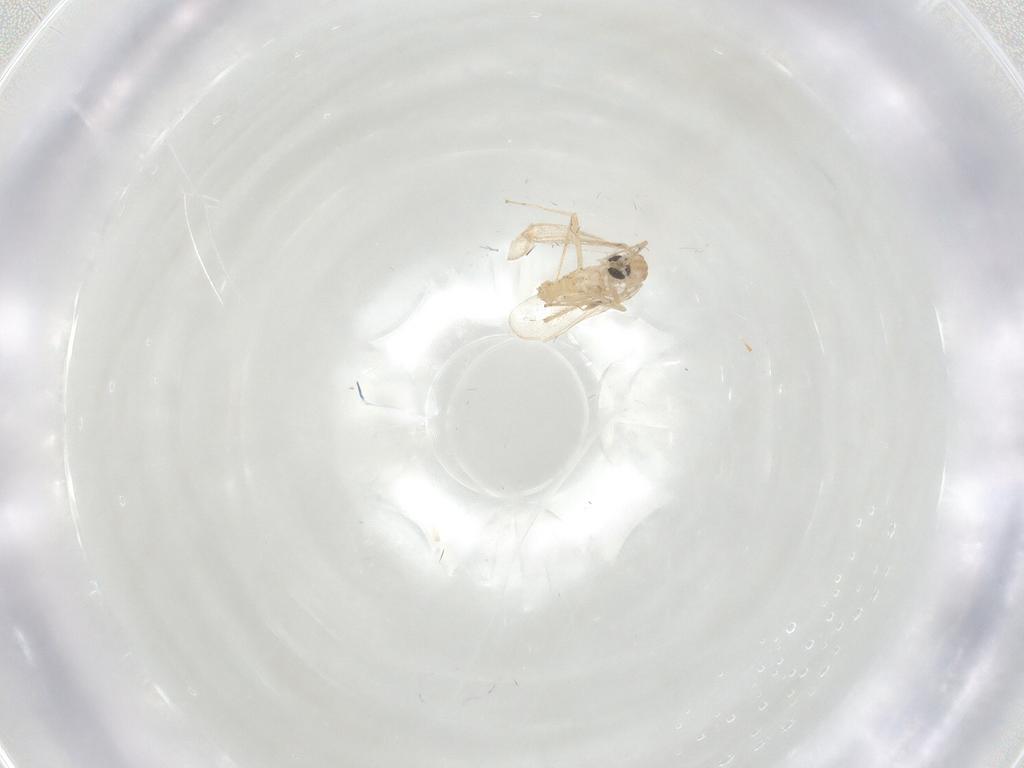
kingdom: Animalia
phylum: Arthropoda
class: Insecta
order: Diptera
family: Chironomidae
